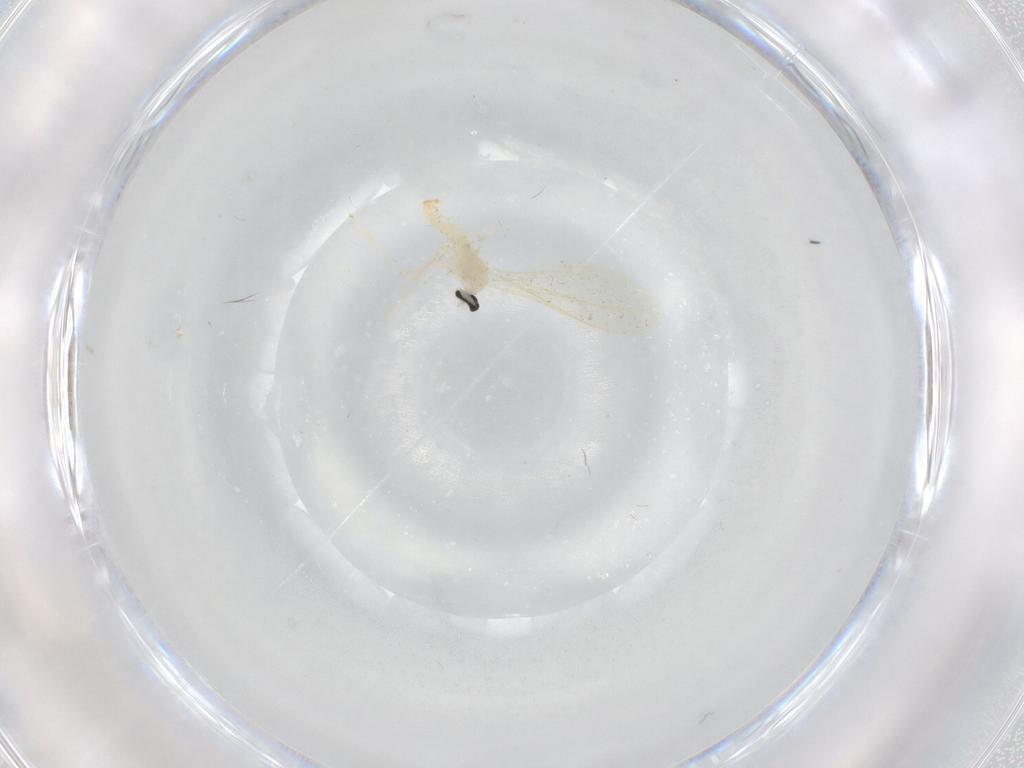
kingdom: Animalia
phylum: Arthropoda
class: Insecta
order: Diptera
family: Cecidomyiidae
